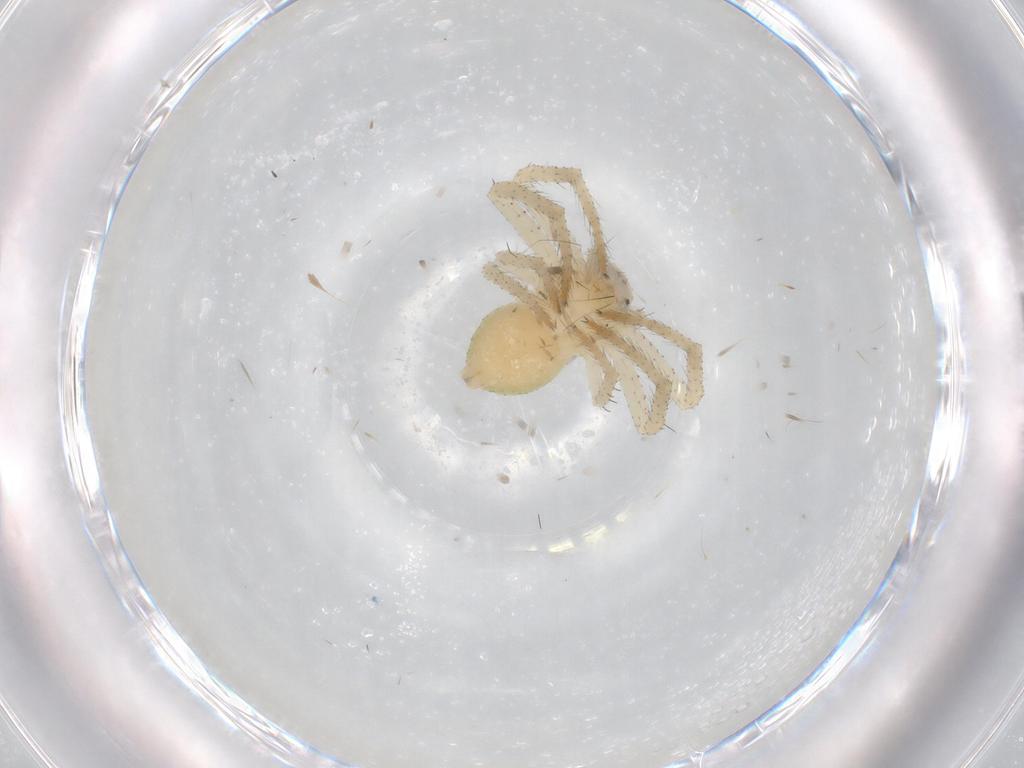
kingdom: Animalia
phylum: Arthropoda
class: Arachnida
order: Araneae
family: Thomisidae
